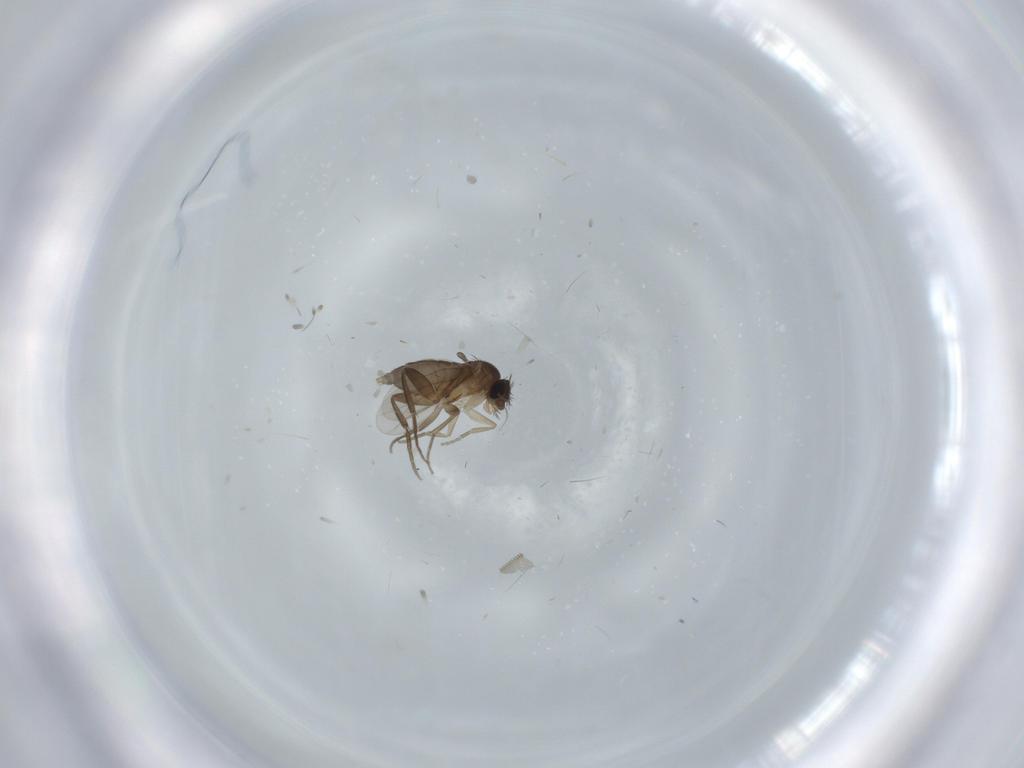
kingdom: Animalia
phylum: Arthropoda
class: Insecta
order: Diptera
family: Phoridae
